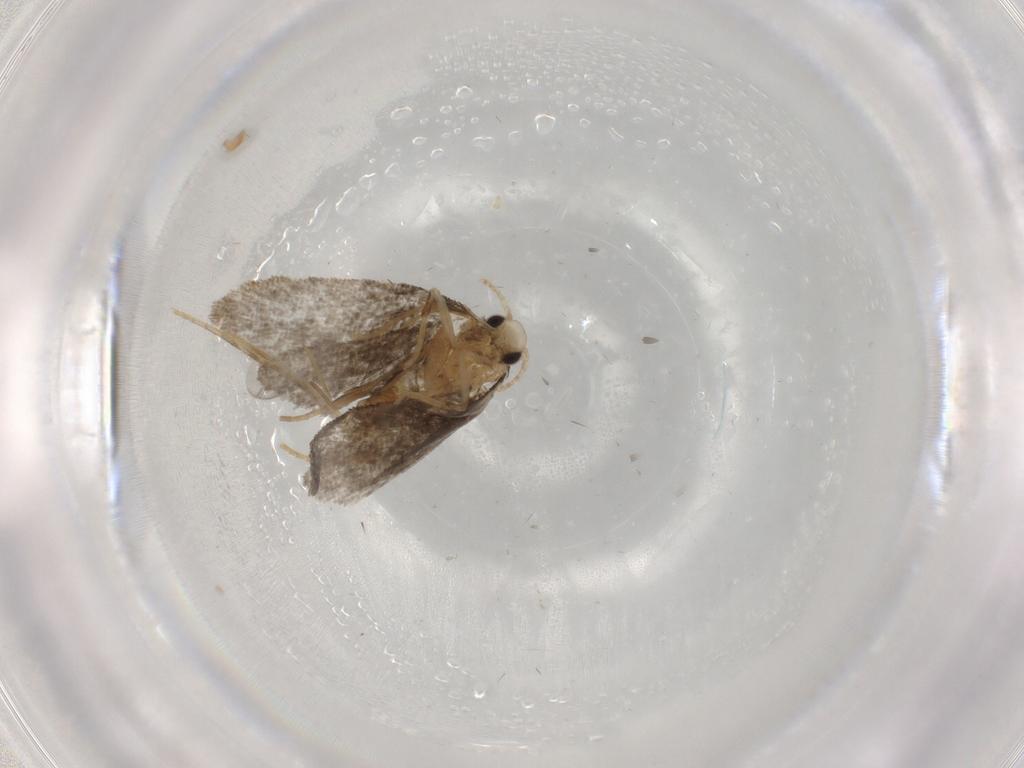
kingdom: Animalia
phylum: Arthropoda
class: Insecta
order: Lepidoptera
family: Psychidae
